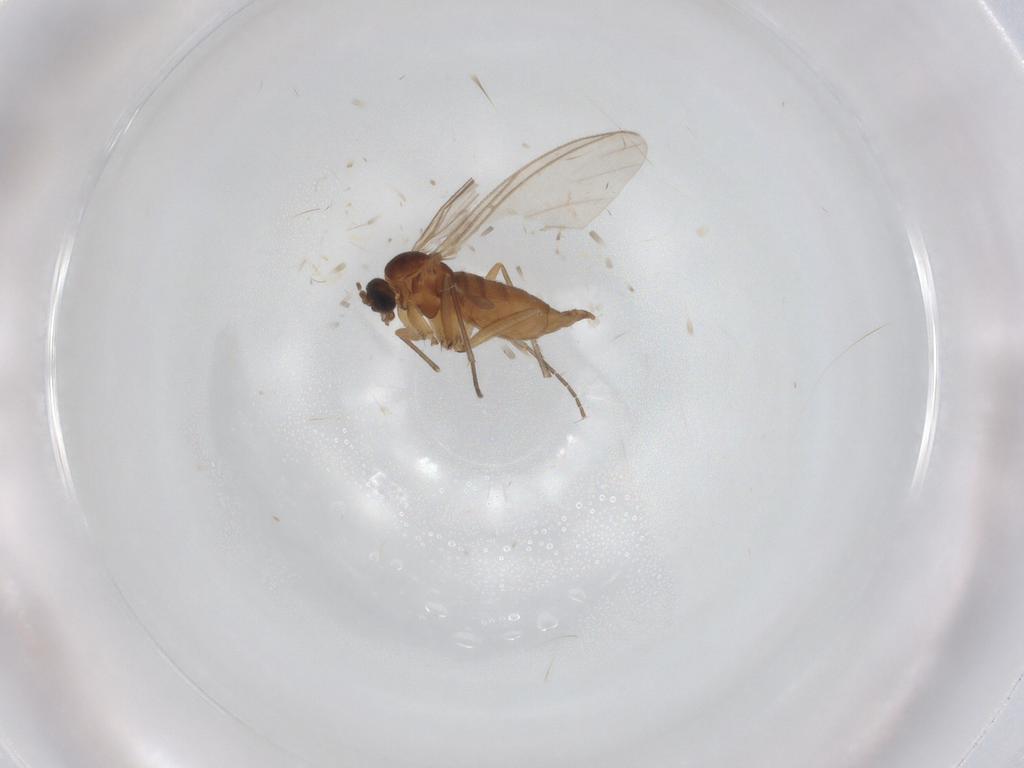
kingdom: Animalia
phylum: Arthropoda
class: Insecta
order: Diptera
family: Sciaridae
